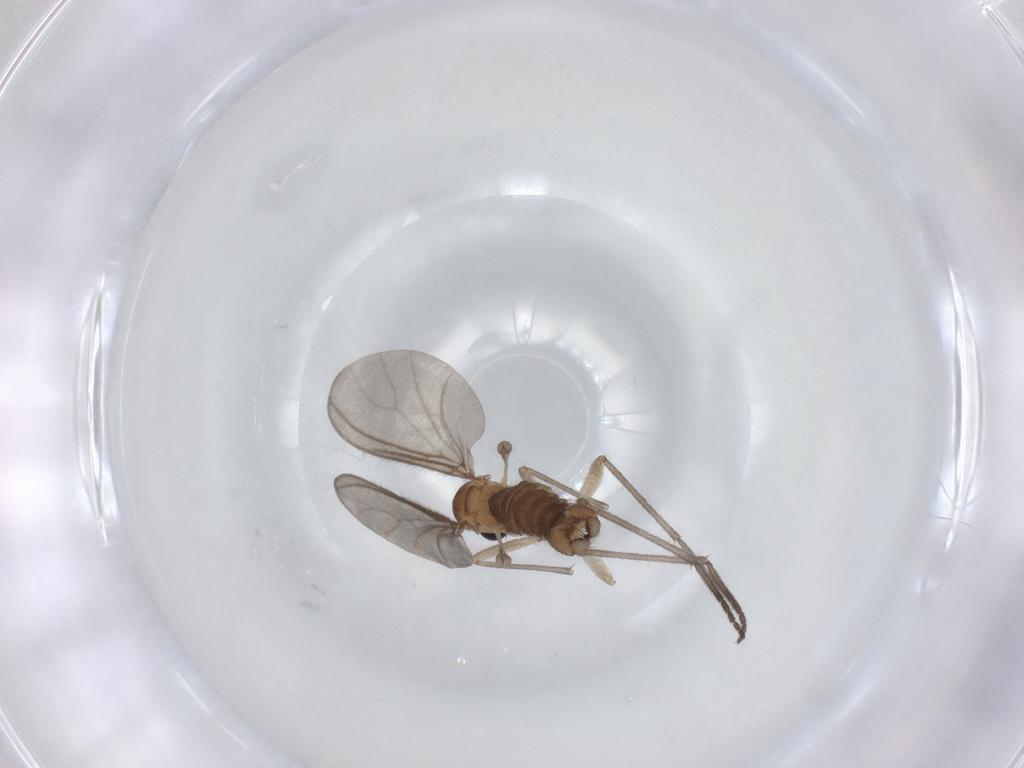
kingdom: Animalia
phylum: Arthropoda
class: Insecta
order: Diptera
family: Sciaridae
